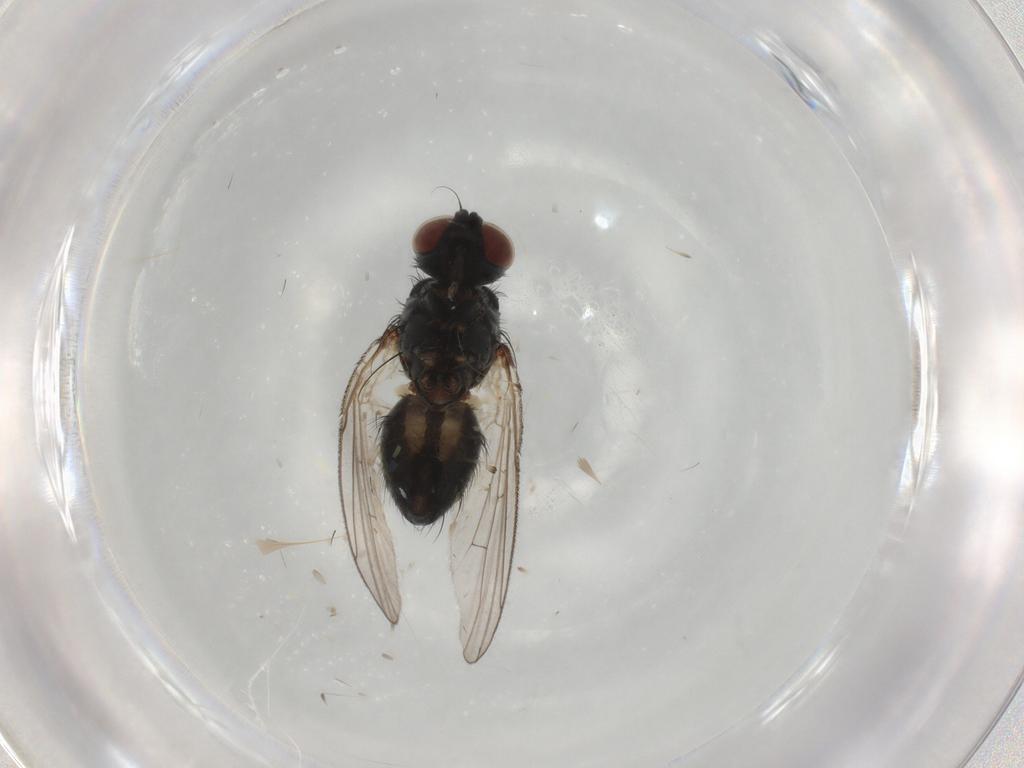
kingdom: Animalia
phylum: Arthropoda
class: Insecta
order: Diptera
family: Muscidae
